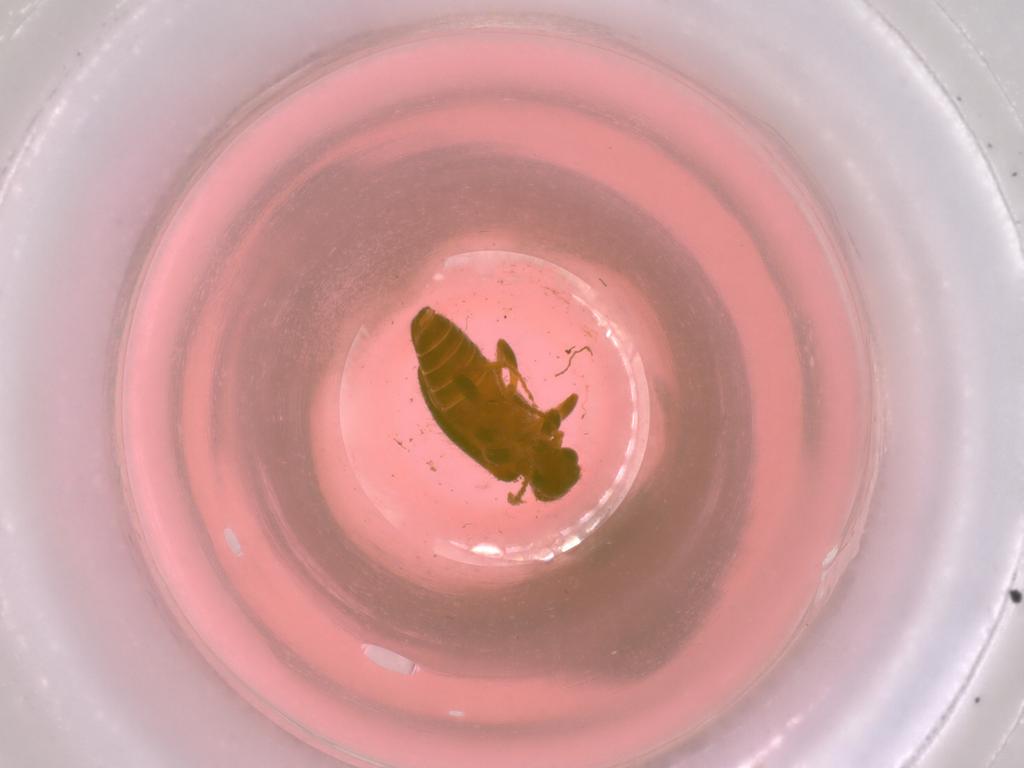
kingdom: Animalia
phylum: Arthropoda
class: Insecta
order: Coleoptera
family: Anthicidae
